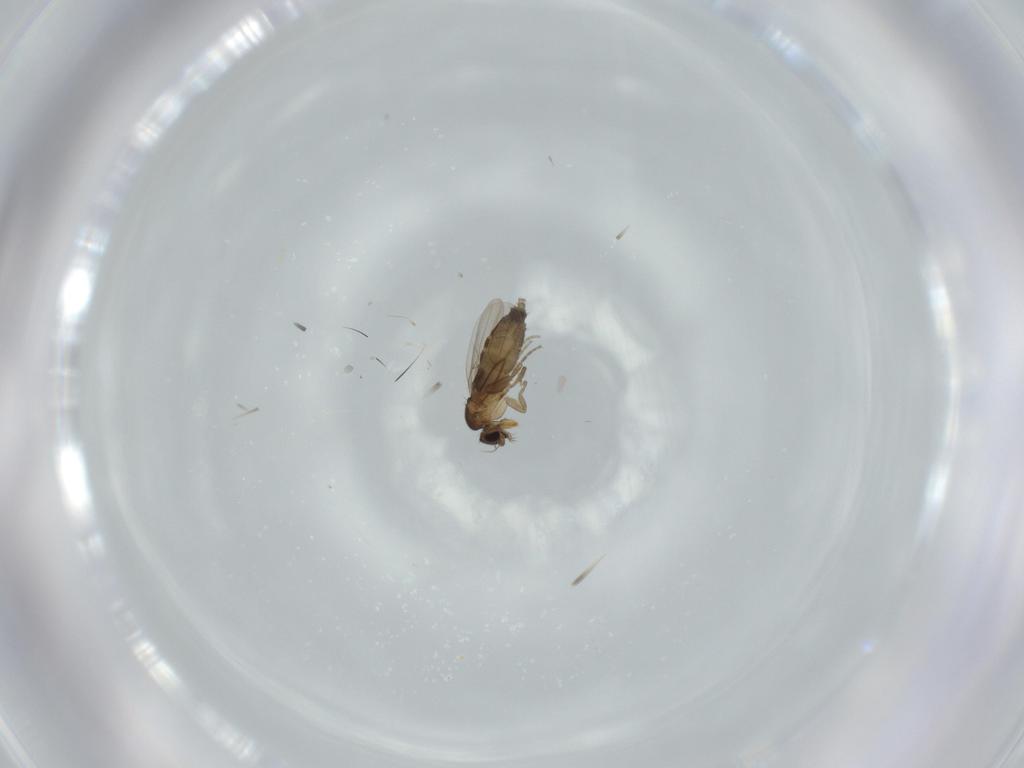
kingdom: Animalia
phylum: Arthropoda
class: Insecta
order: Diptera
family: Phoridae
